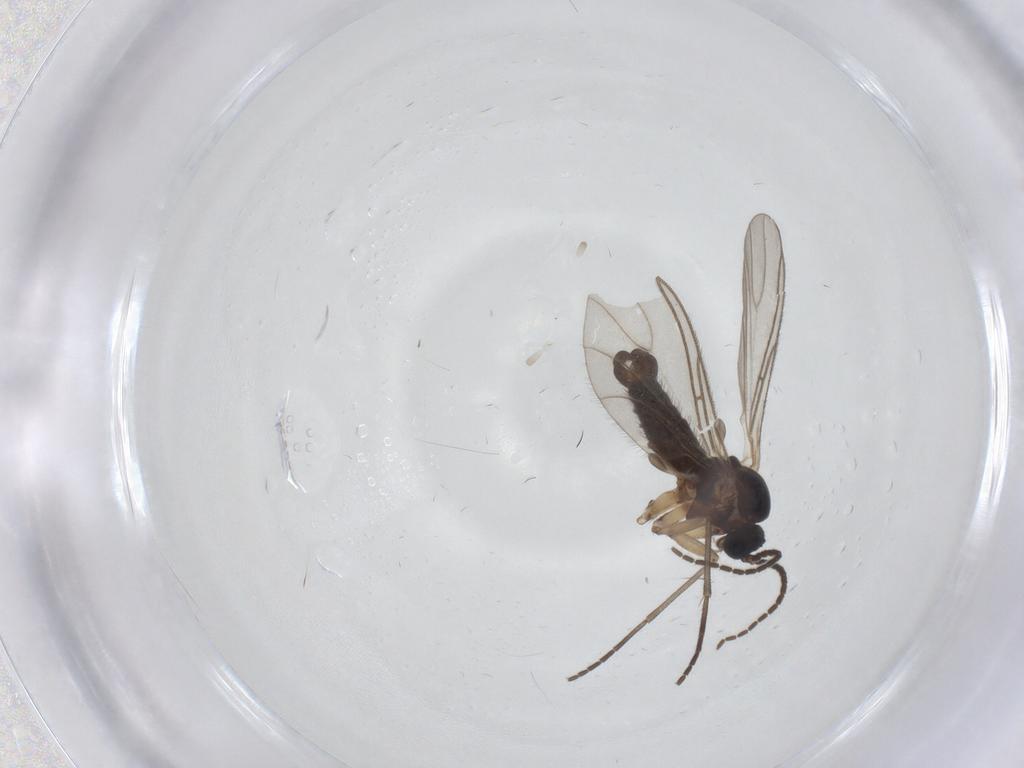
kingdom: Animalia
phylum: Arthropoda
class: Insecta
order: Diptera
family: Sciaridae
